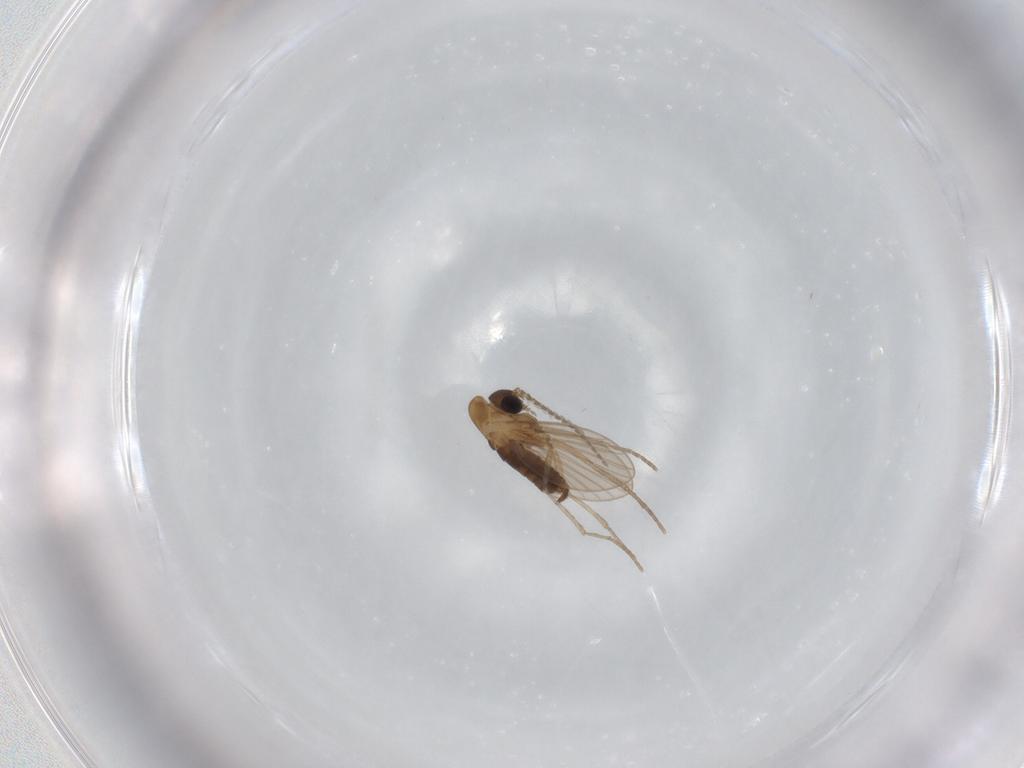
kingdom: Animalia
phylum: Arthropoda
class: Insecta
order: Diptera
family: Psychodidae
